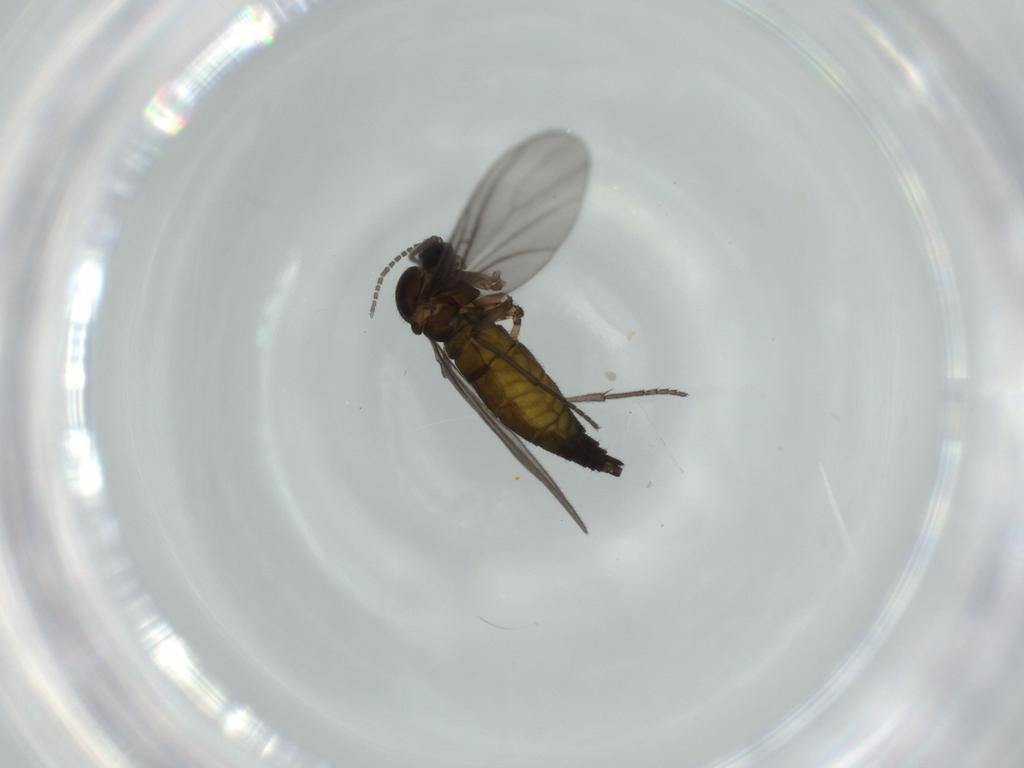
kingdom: Animalia
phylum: Arthropoda
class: Insecta
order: Diptera
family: Sciaridae
